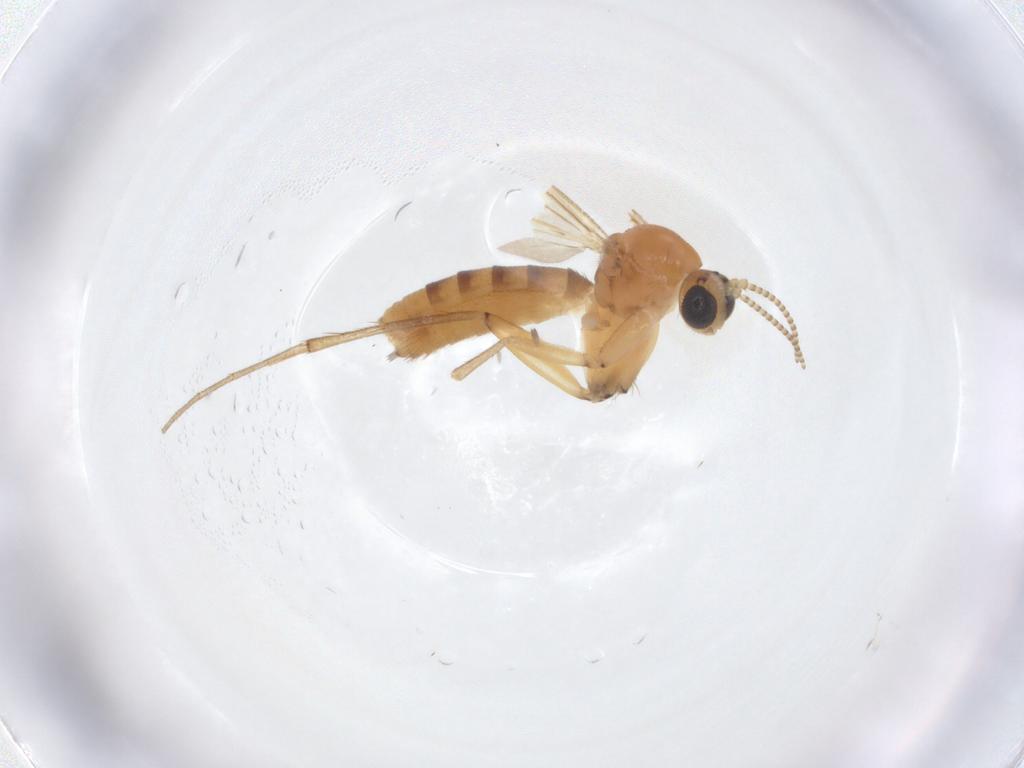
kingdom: Animalia
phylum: Arthropoda
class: Insecta
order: Diptera
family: Mycetophilidae
